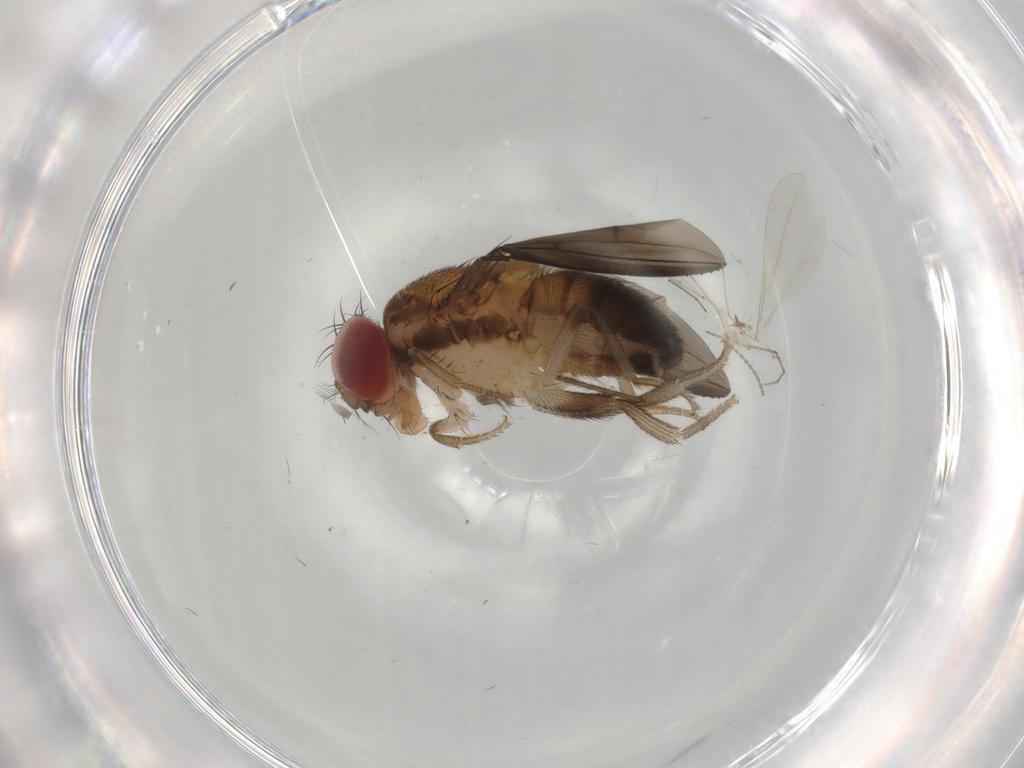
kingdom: Animalia
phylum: Arthropoda
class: Insecta
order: Diptera
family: Drosophilidae
